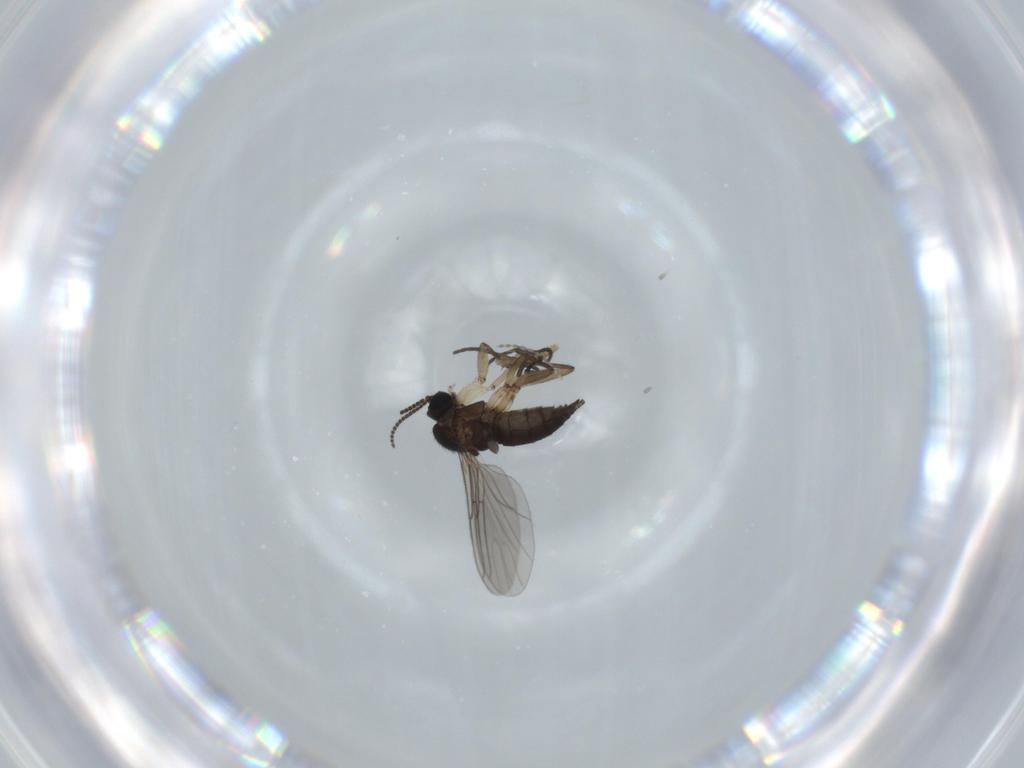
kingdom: Animalia
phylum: Arthropoda
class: Insecta
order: Diptera
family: Sciaridae
